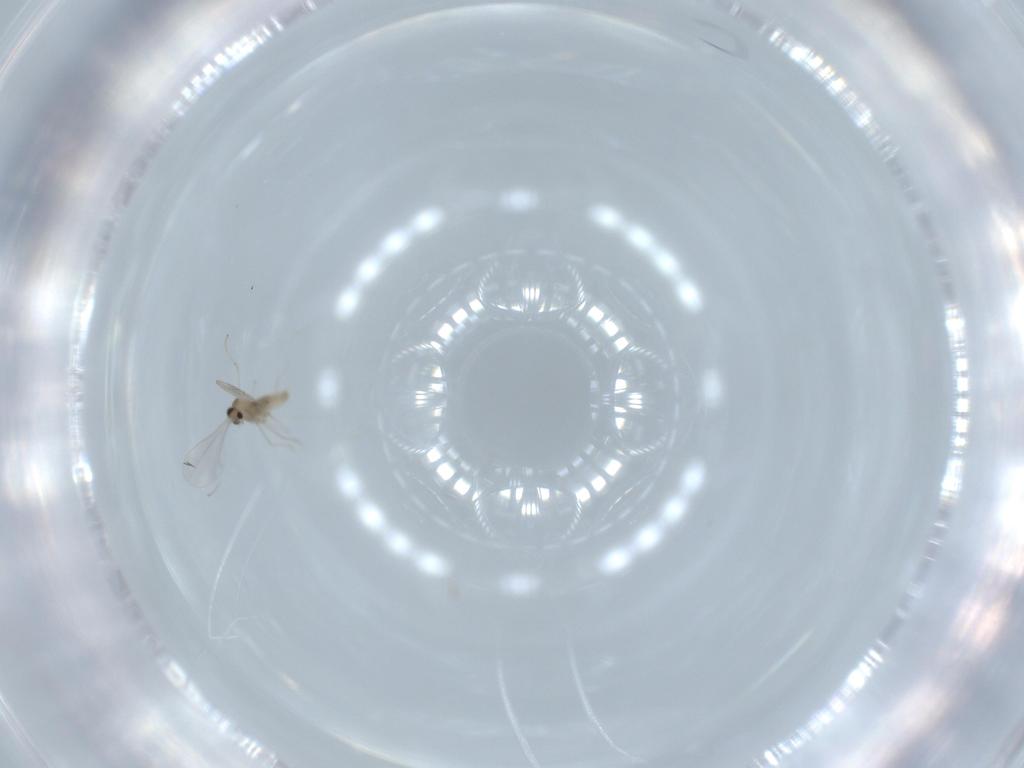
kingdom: Animalia
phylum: Arthropoda
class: Insecta
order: Diptera
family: Cecidomyiidae
